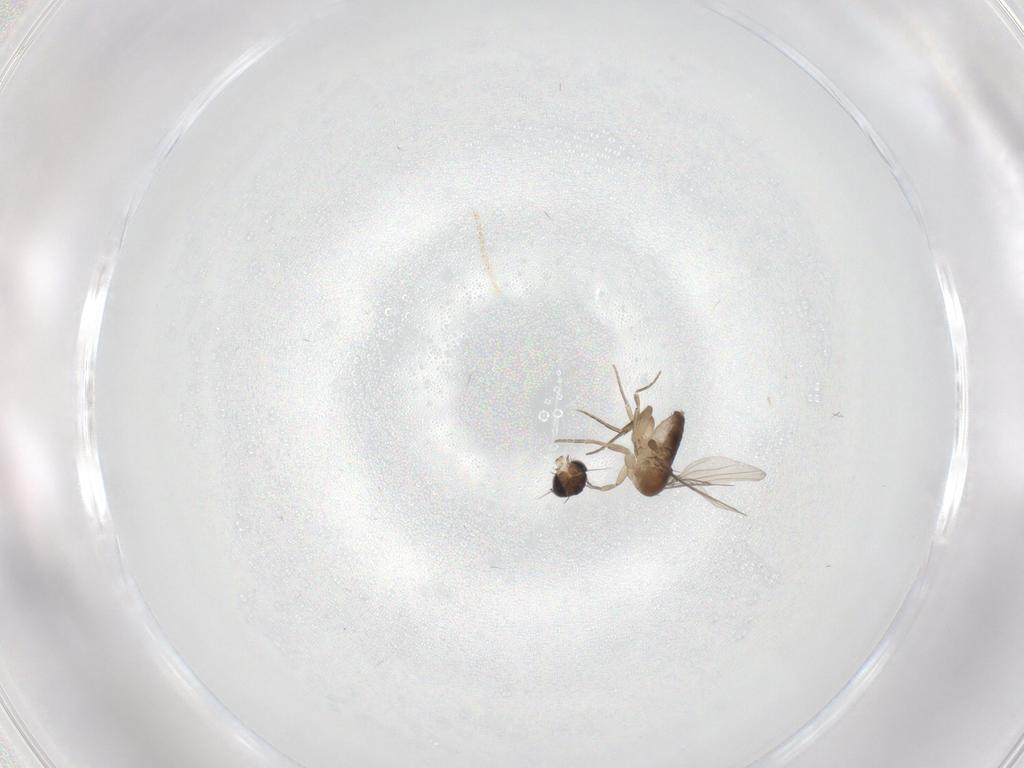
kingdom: Animalia
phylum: Arthropoda
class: Insecta
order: Diptera
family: Phoridae
